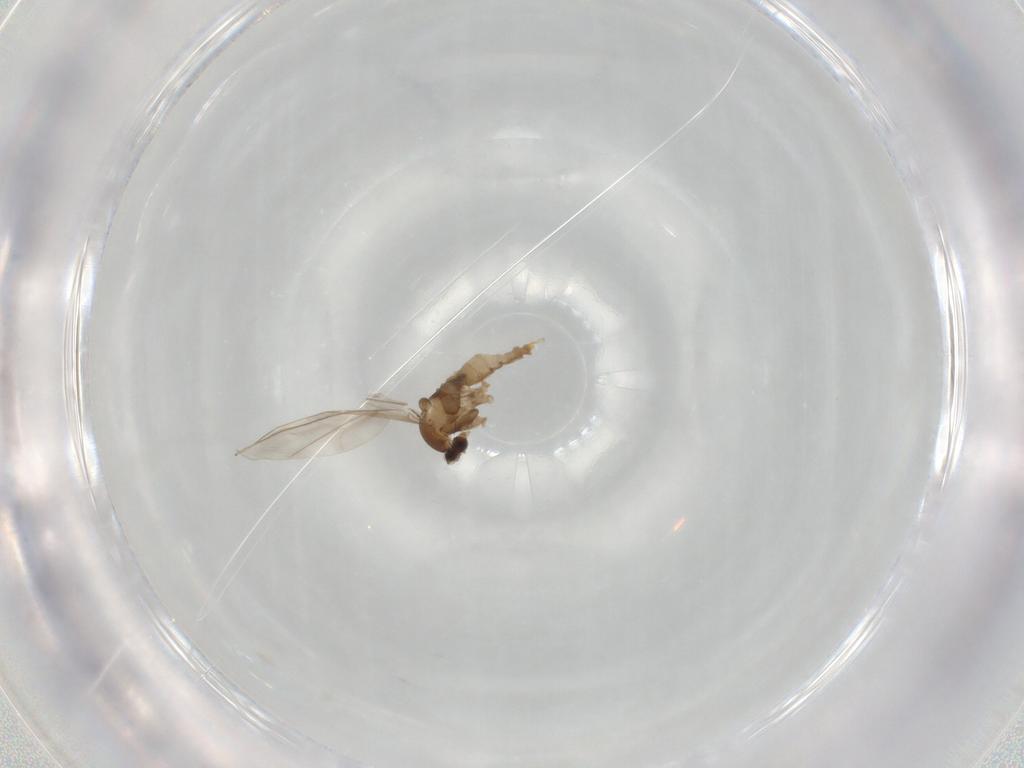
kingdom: Animalia
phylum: Arthropoda
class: Insecta
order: Diptera
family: Cecidomyiidae
